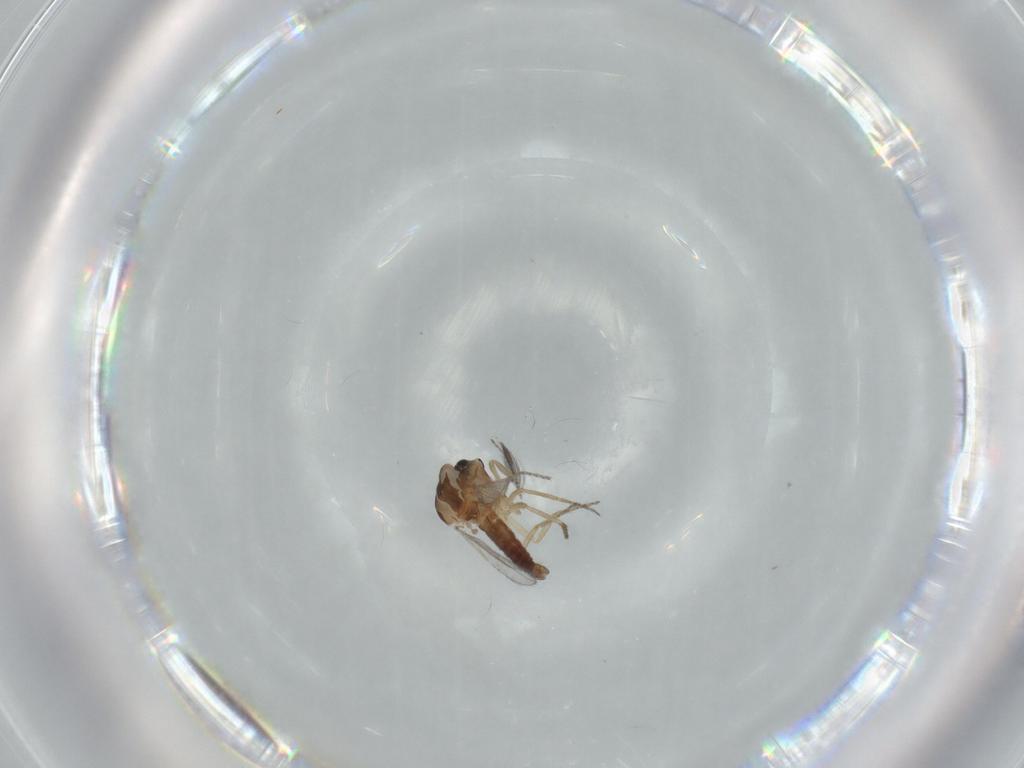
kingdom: Animalia
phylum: Arthropoda
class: Insecta
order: Diptera
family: Ceratopogonidae
